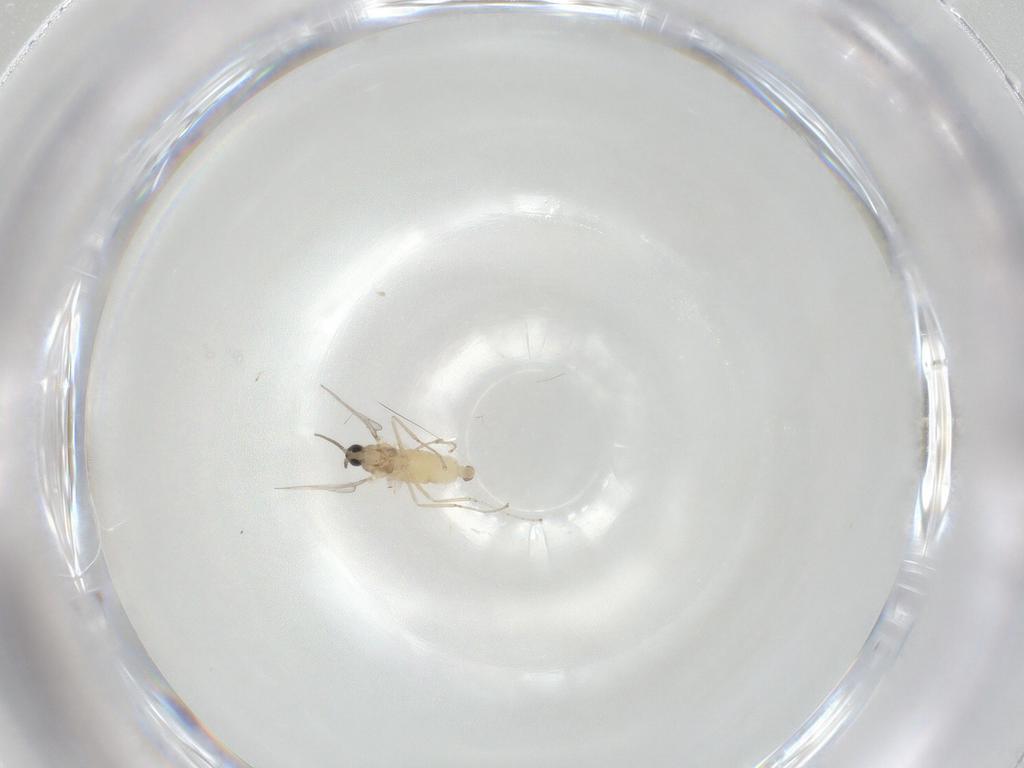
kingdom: Animalia
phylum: Arthropoda
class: Insecta
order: Diptera
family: Cecidomyiidae
